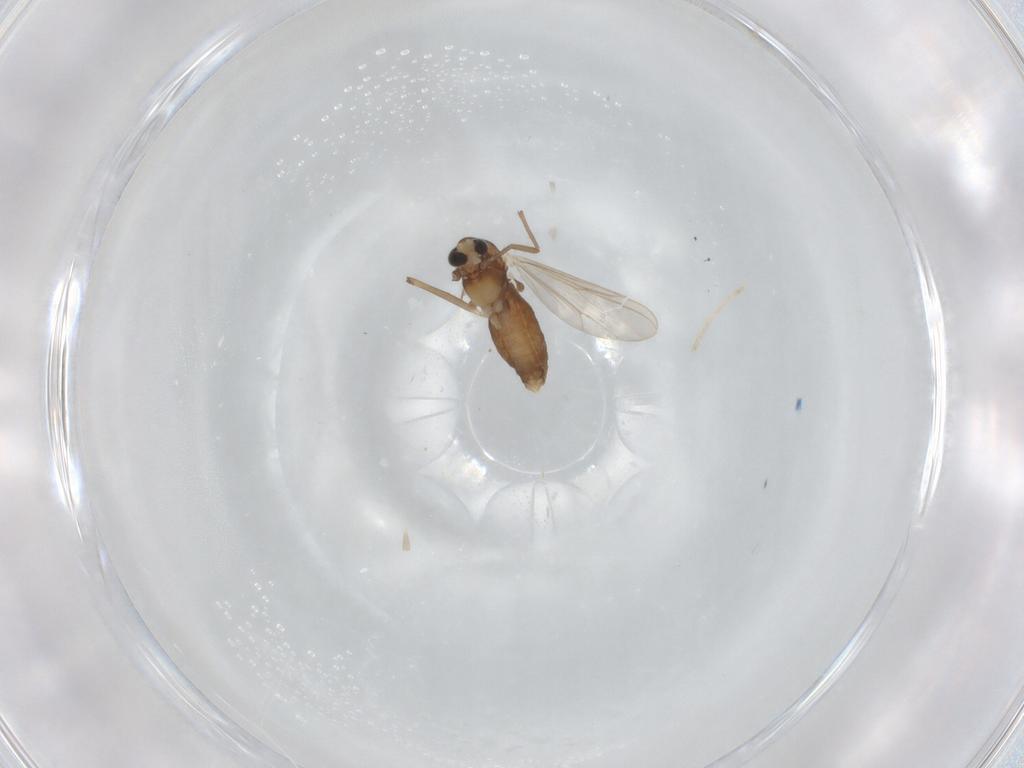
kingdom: Animalia
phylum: Arthropoda
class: Insecta
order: Diptera
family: Chironomidae
